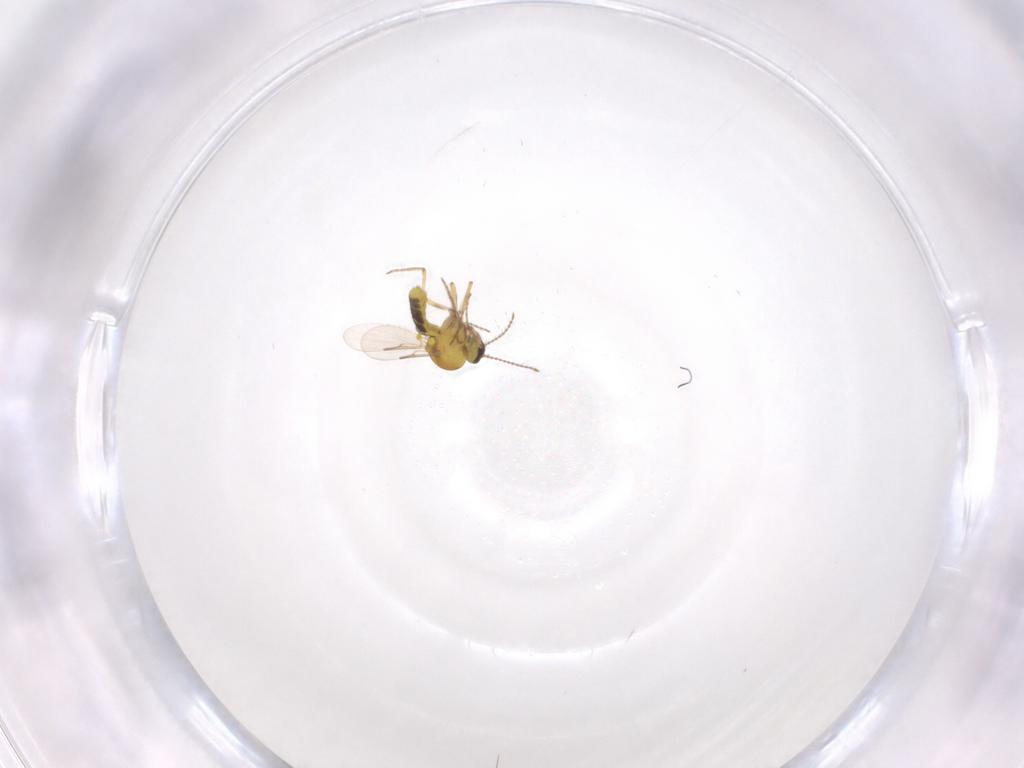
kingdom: Animalia
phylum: Arthropoda
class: Insecta
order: Diptera
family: Ceratopogonidae
